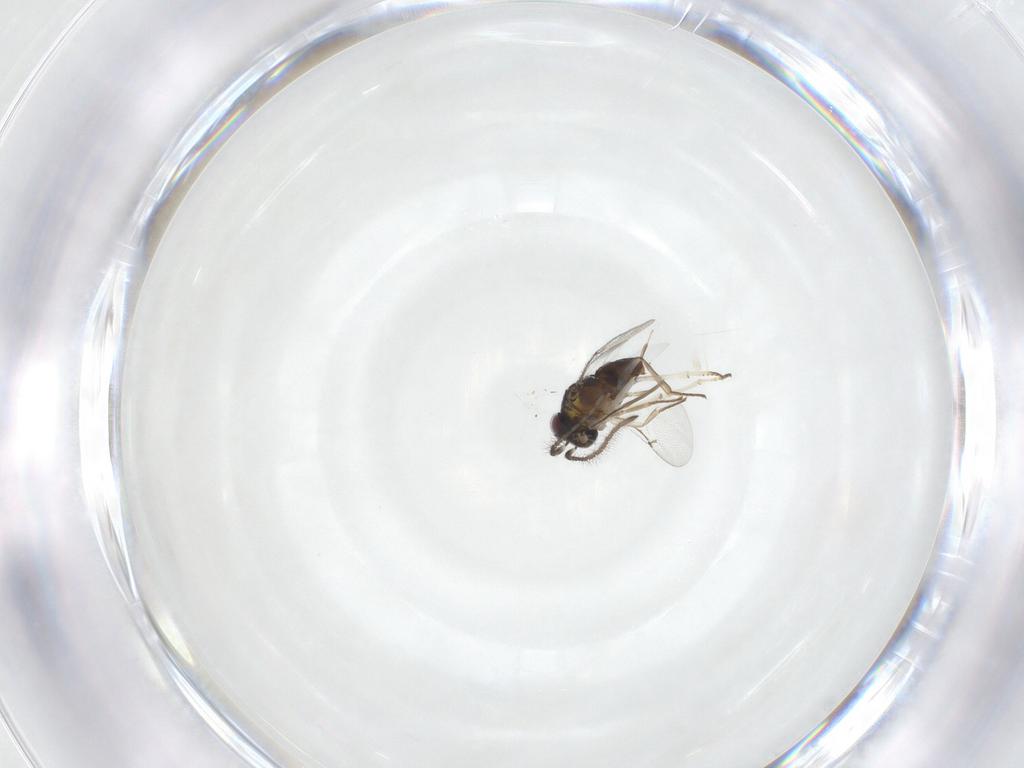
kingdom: Animalia
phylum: Arthropoda
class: Insecta
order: Hymenoptera
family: Encyrtidae
